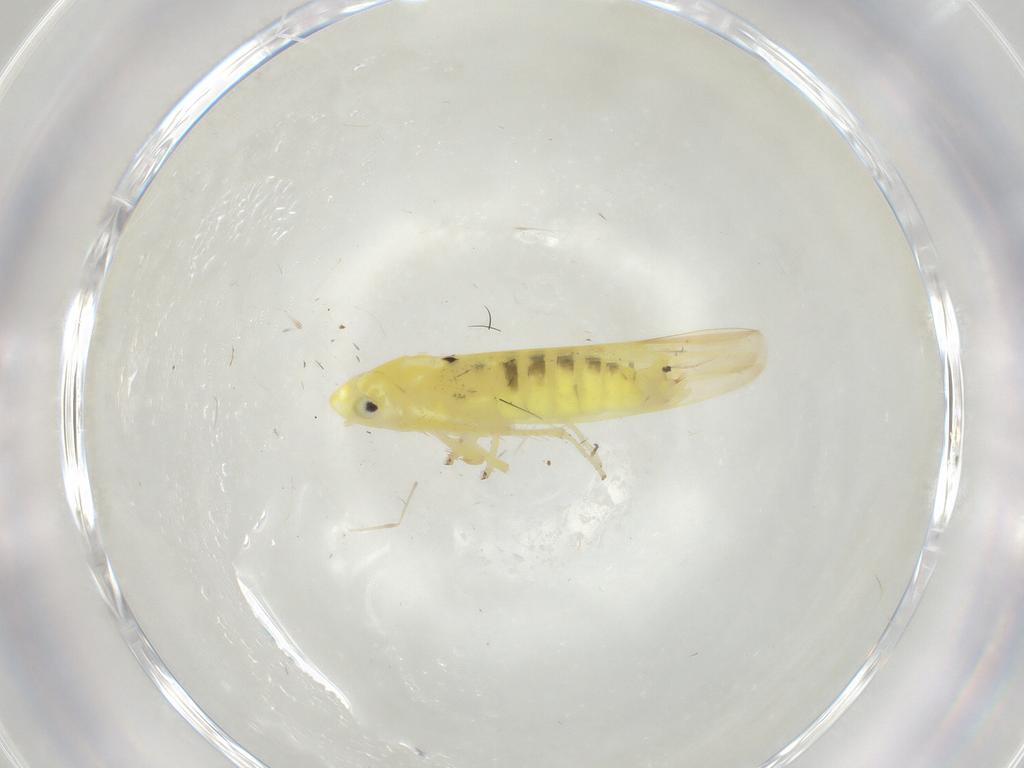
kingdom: Animalia
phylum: Arthropoda
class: Insecta
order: Hemiptera
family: Cicadellidae
